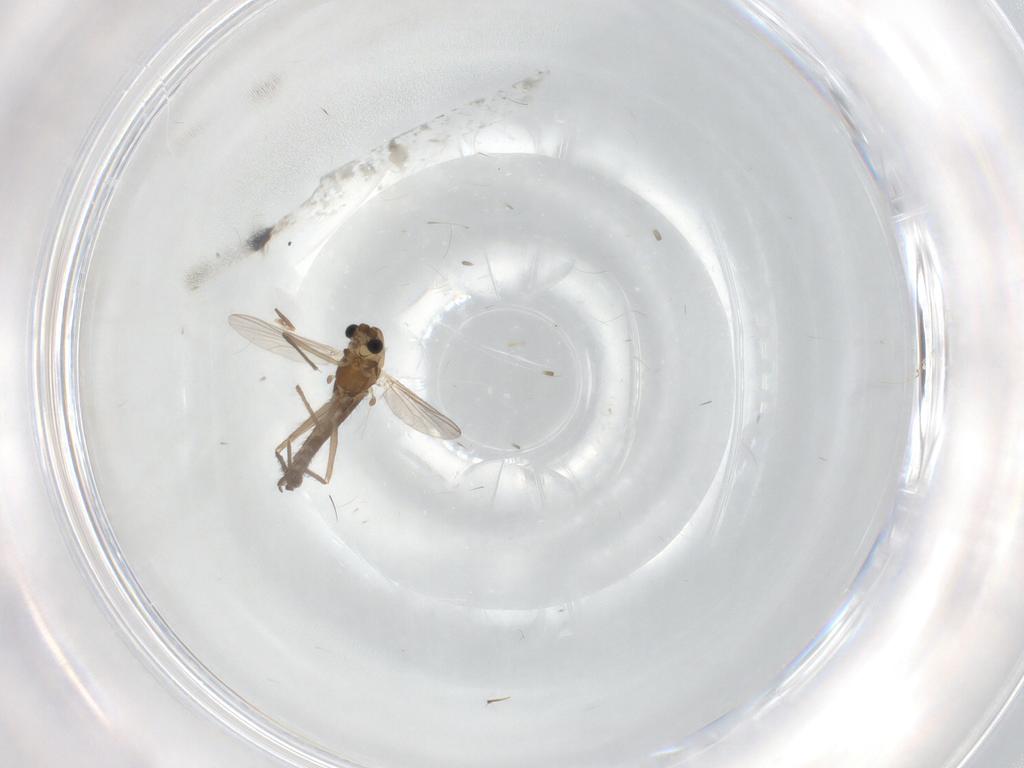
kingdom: Animalia
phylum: Arthropoda
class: Insecta
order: Diptera
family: Chironomidae
